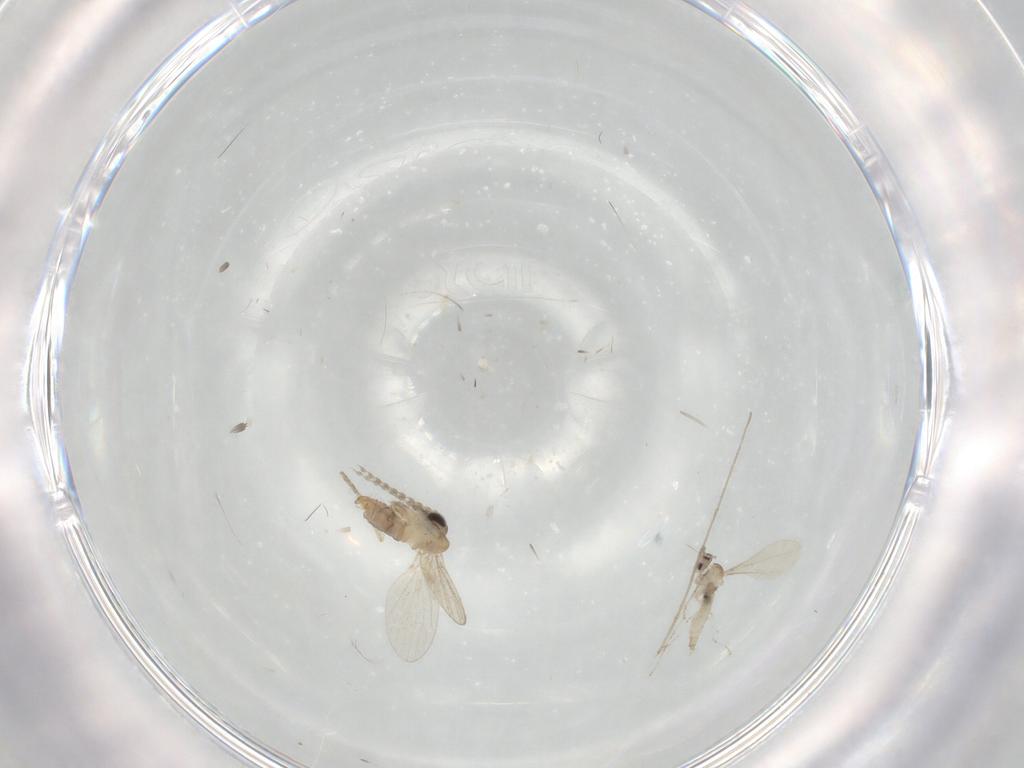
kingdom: Animalia
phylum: Arthropoda
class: Insecta
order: Diptera
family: Cecidomyiidae
